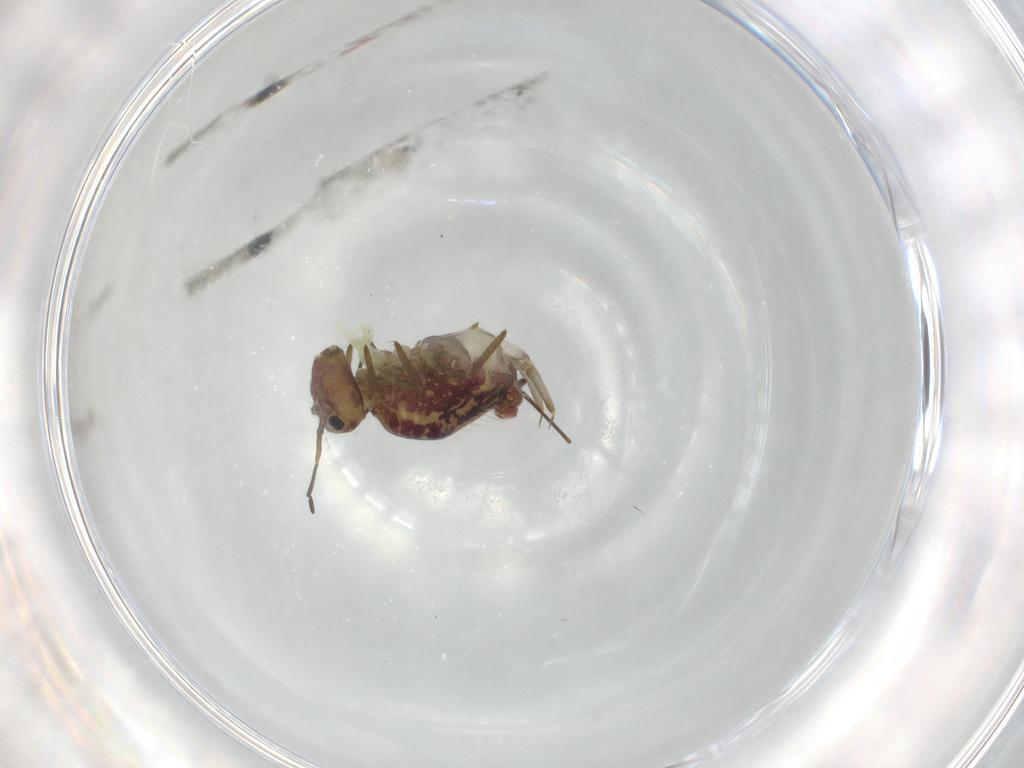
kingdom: Animalia
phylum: Arthropoda
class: Collembola
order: Symphypleona
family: Sminthuridae
